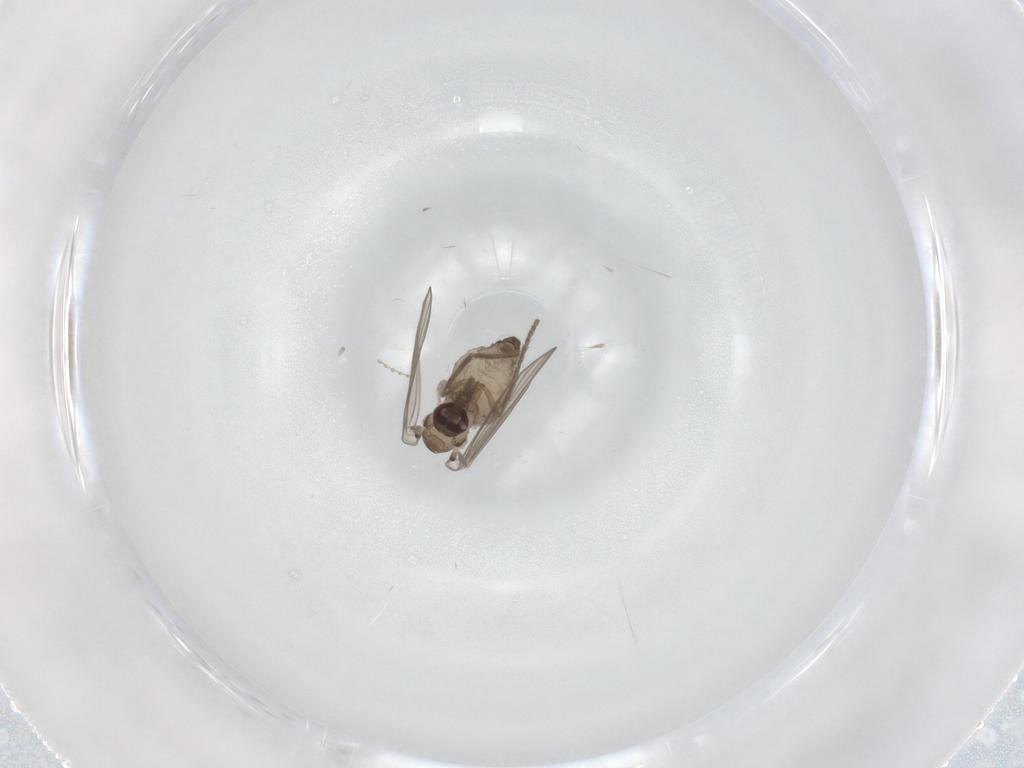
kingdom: Animalia
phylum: Arthropoda
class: Insecta
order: Diptera
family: Psychodidae
